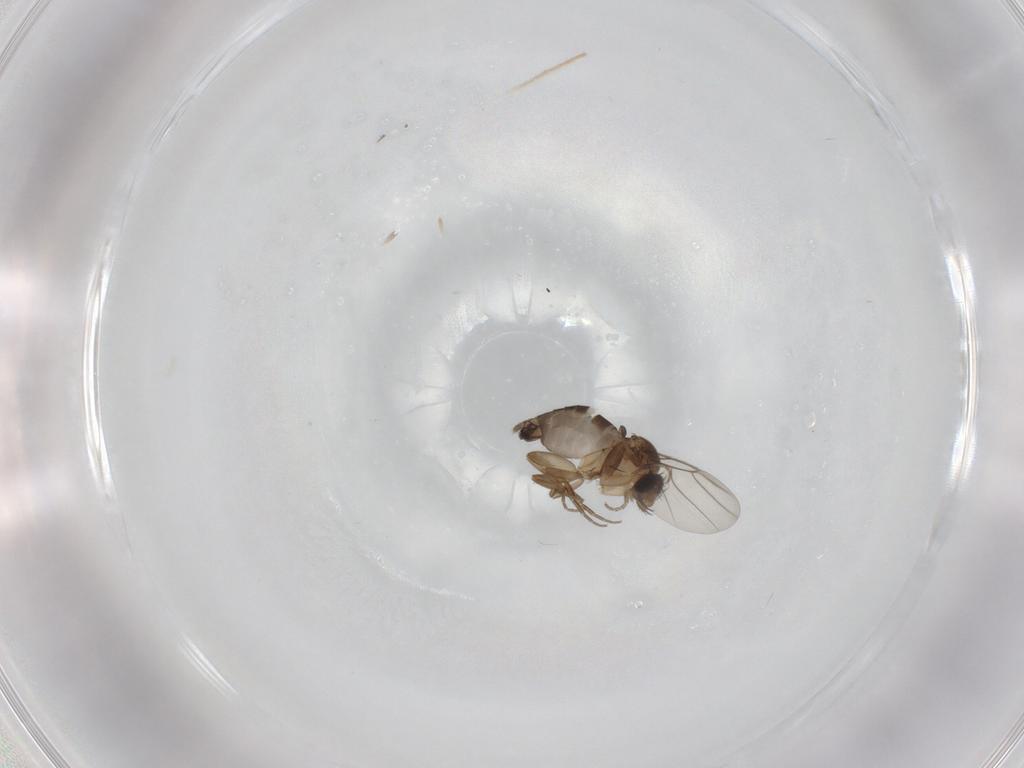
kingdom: Animalia
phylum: Arthropoda
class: Insecta
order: Diptera
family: Phoridae
